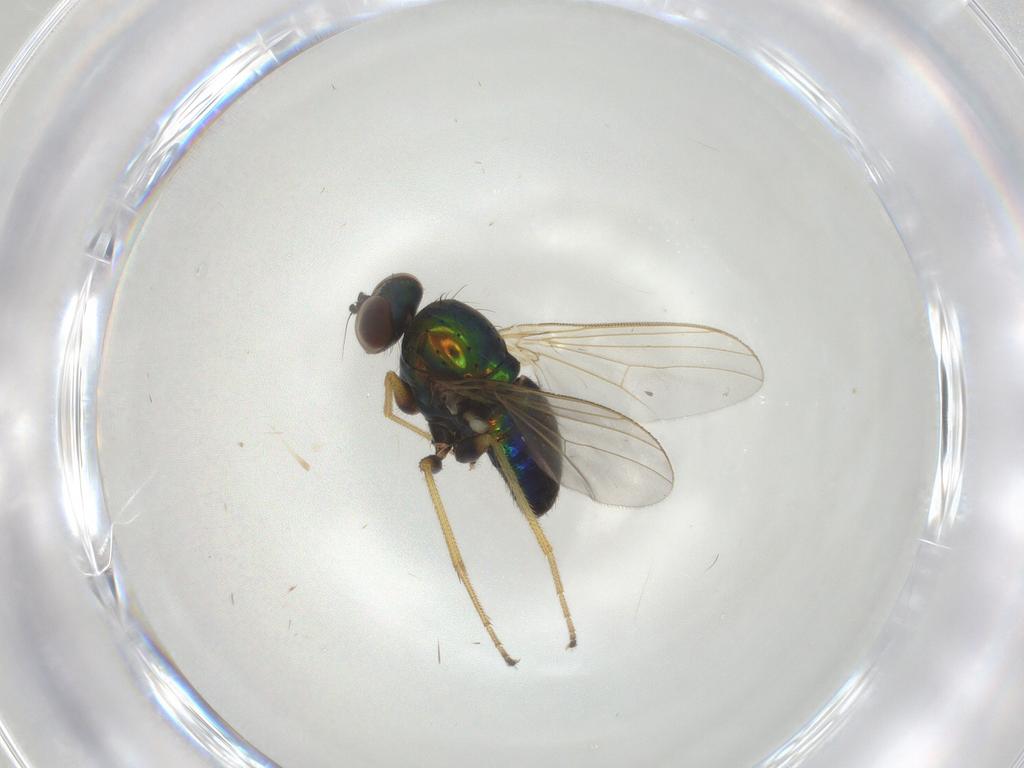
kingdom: Animalia
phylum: Arthropoda
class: Insecta
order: Diptera
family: Dolichopodidae
